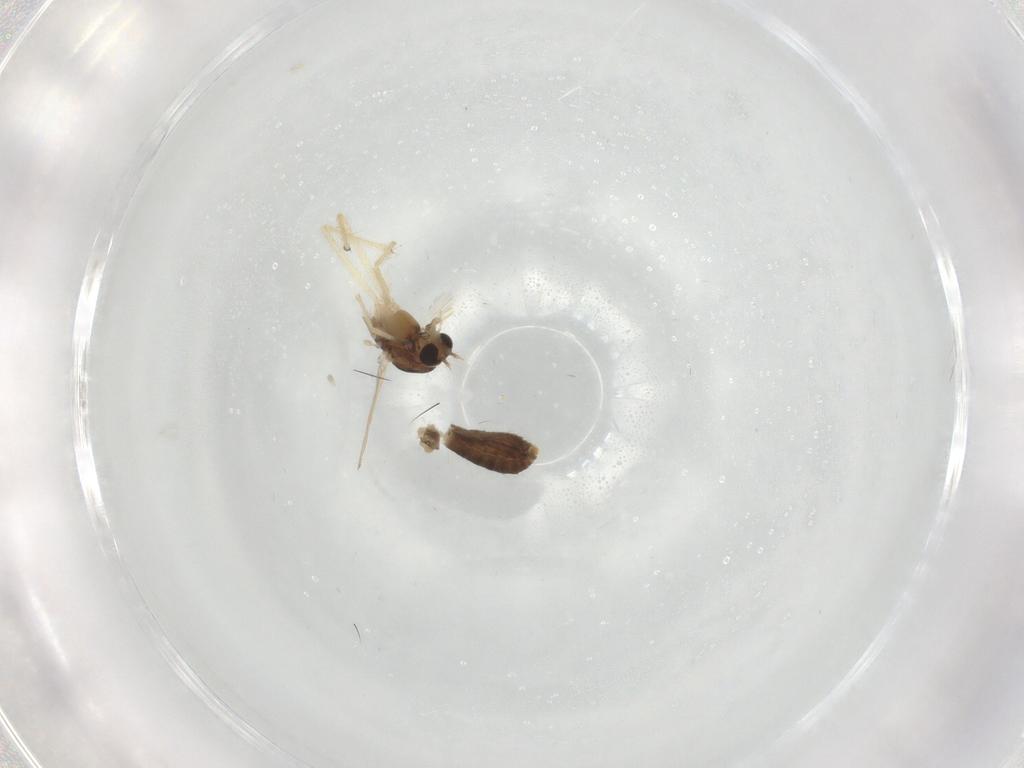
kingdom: Animalia
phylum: Arthropoda
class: Insecta
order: Diptera
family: Chironomidae
